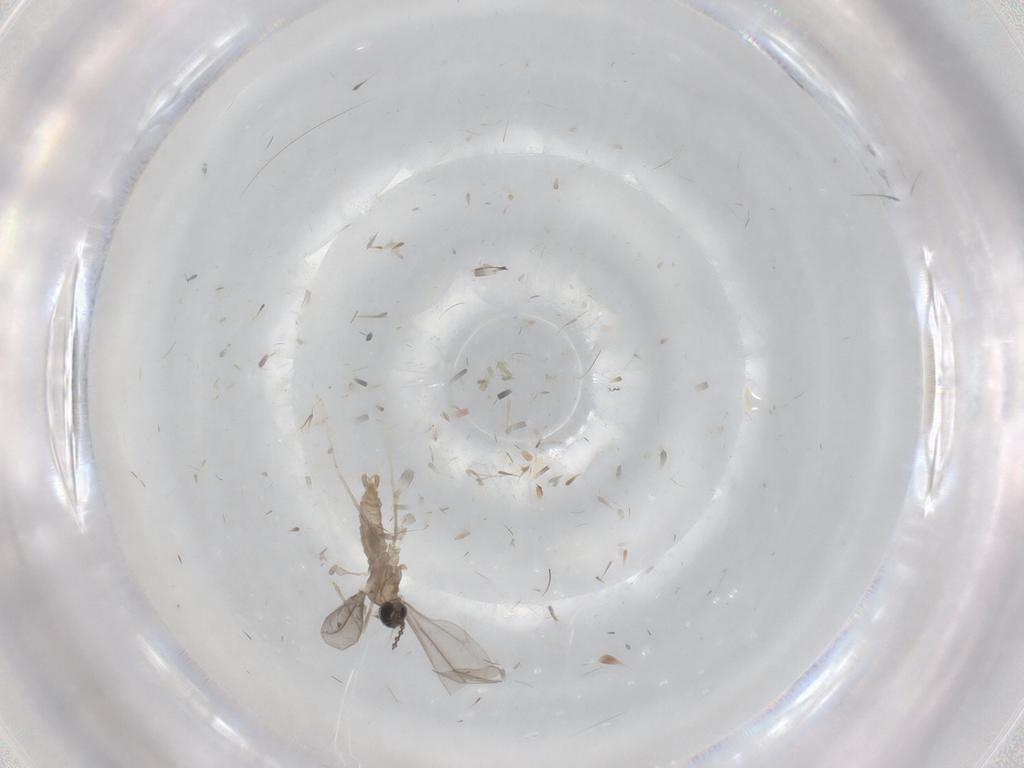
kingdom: Animalia
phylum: Arthropoda
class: Insecta
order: Diptera
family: Cecidomyiidae
